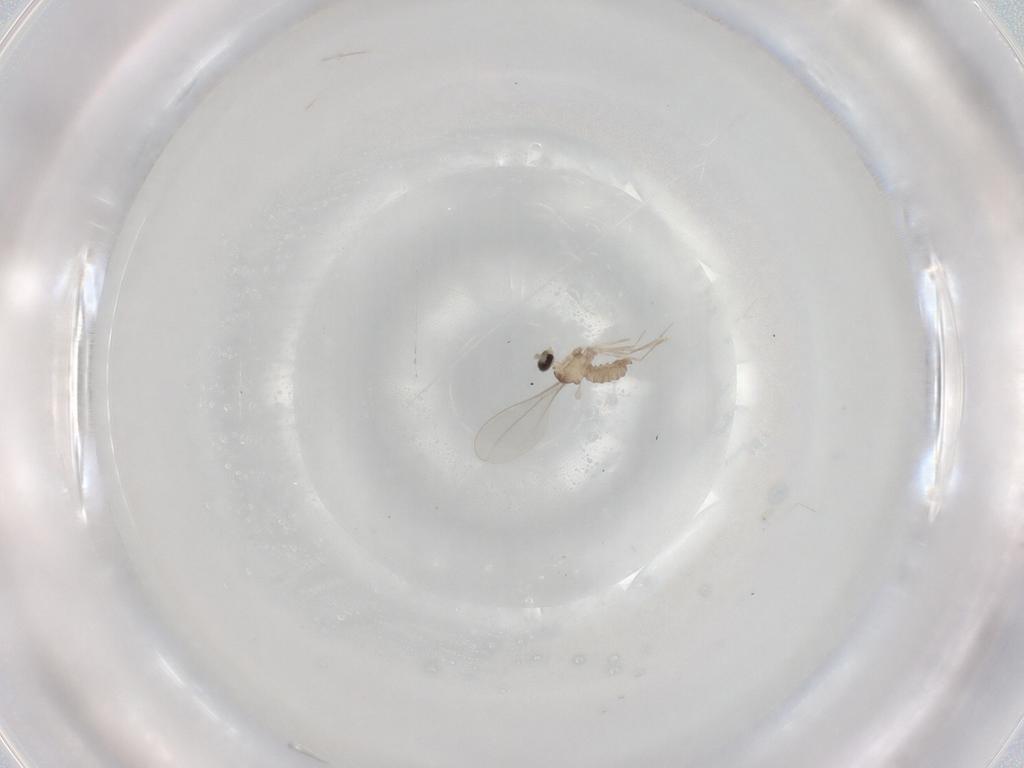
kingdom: Animalia
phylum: Arthropoda
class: Insecta
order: Diptera
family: Cecidomyiidae
